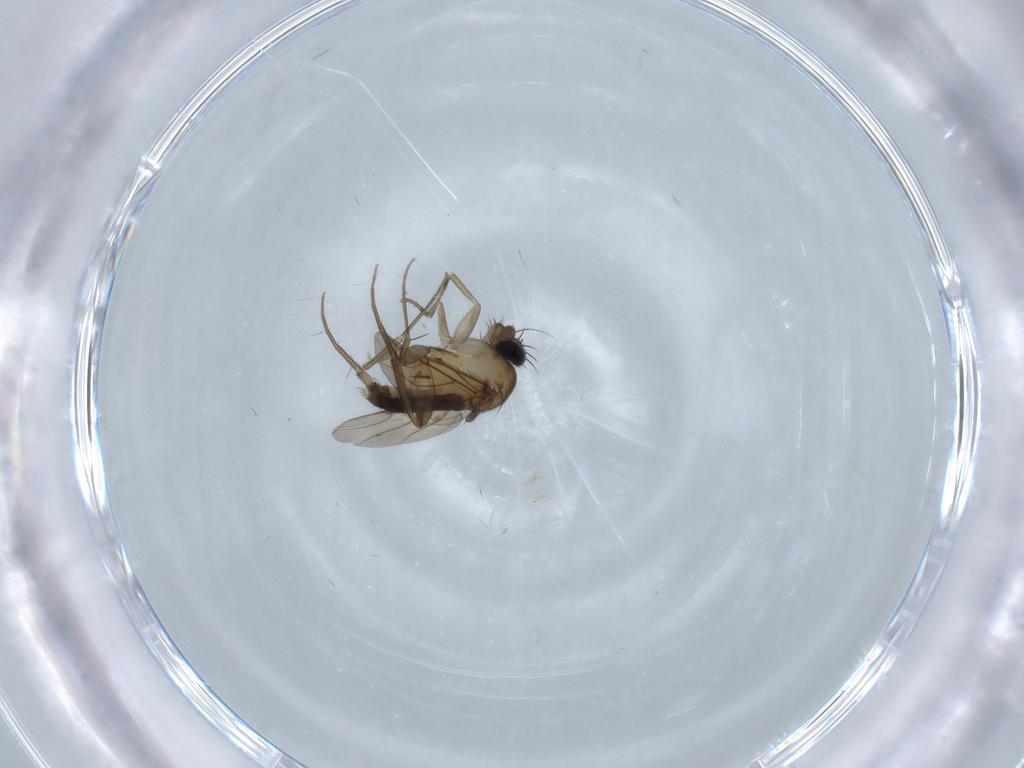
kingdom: Animalia
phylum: Arthropoda
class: Insecta
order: Diptera
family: Phoridae
